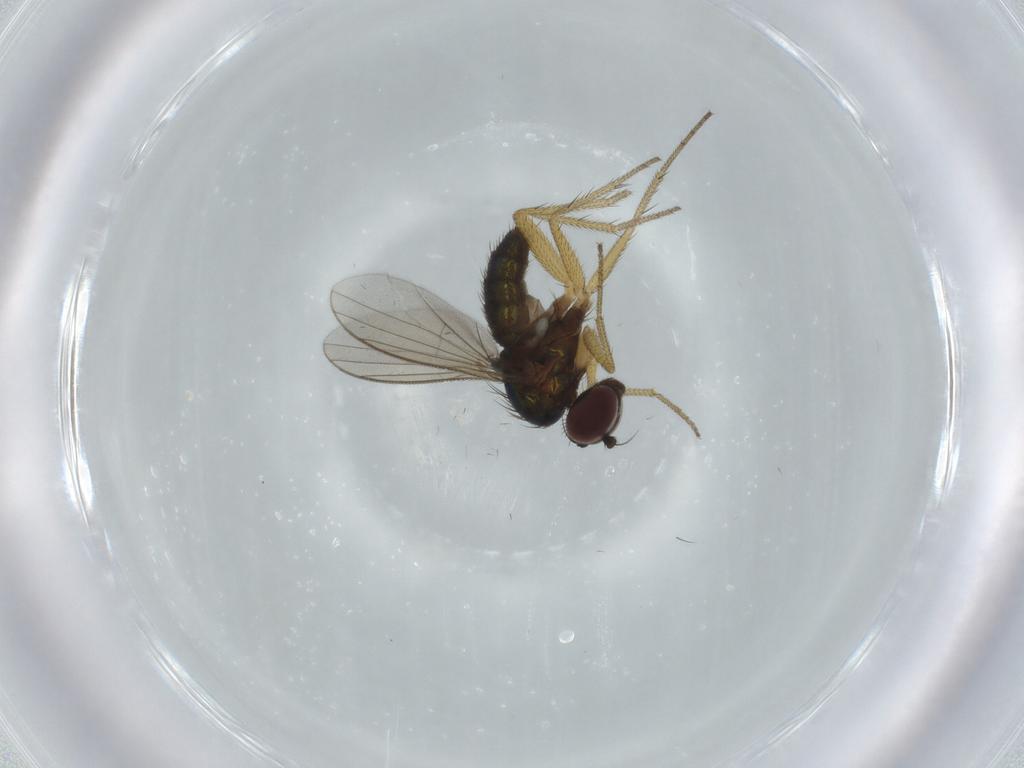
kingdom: Animalia
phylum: Arthropoda
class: Insecta
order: Diptera
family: Dolichopodidae
